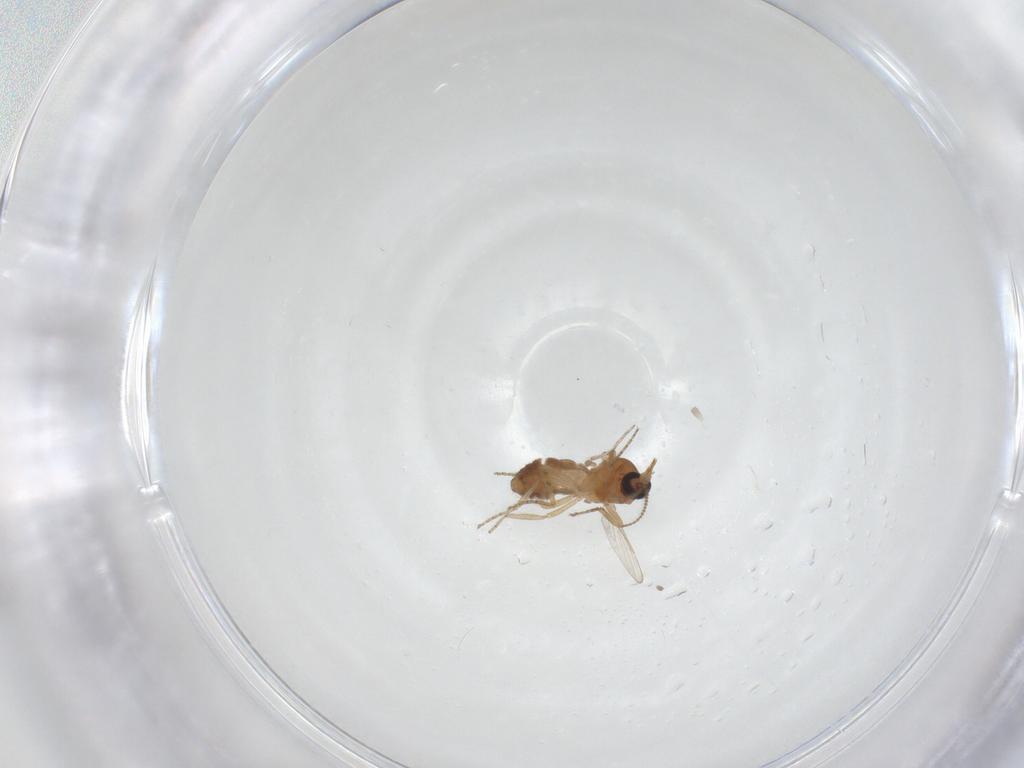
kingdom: Animalia
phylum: Arthropoda
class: Insecta
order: Diptera
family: Ceratopogonidae
